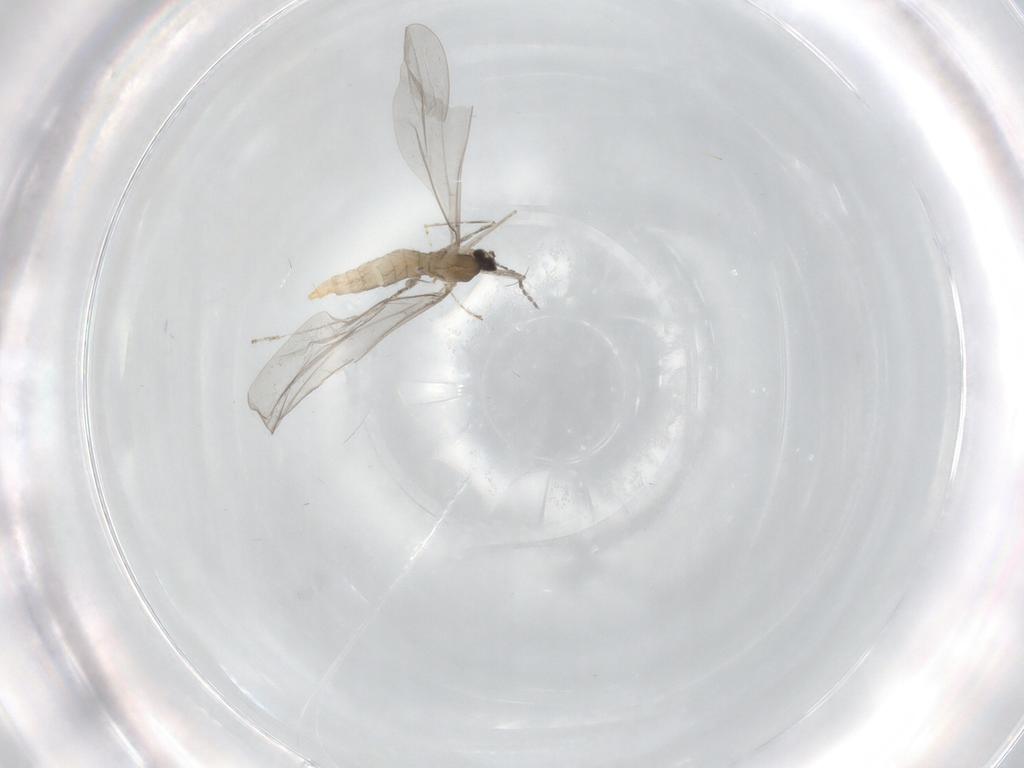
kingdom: Animalia
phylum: Arthropoda
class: Insecta
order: Diptera
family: Cecidomyiidae
